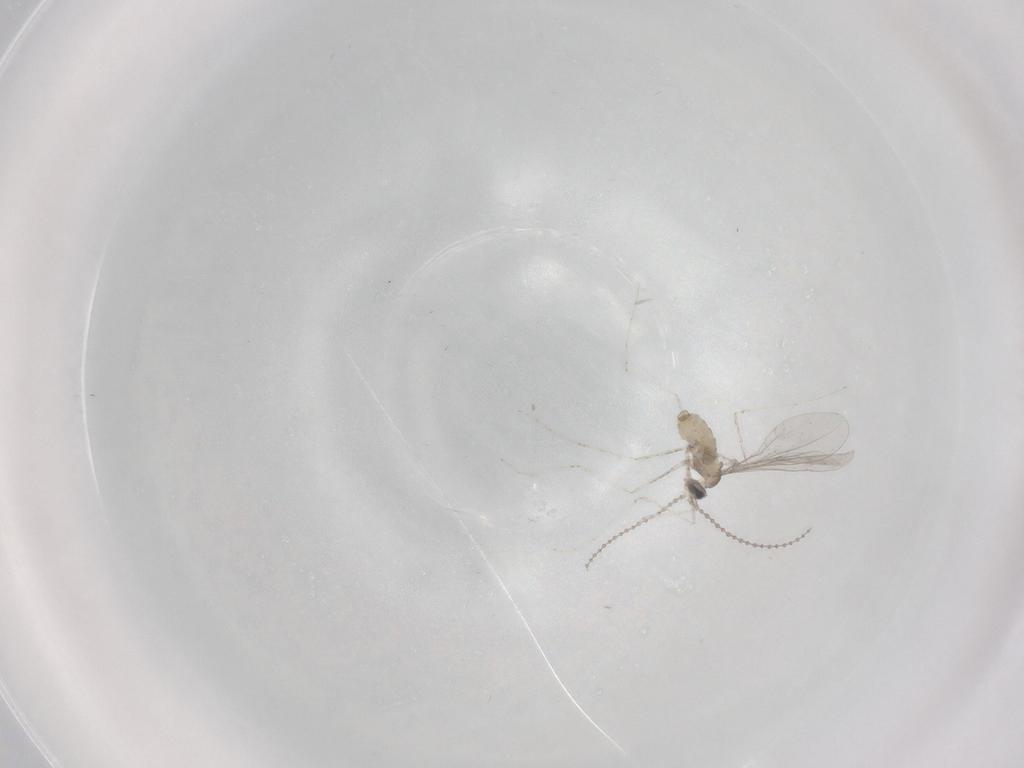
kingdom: Animalia
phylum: Arthropoda
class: Insecta
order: Diptera
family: Cecidomyiidae
